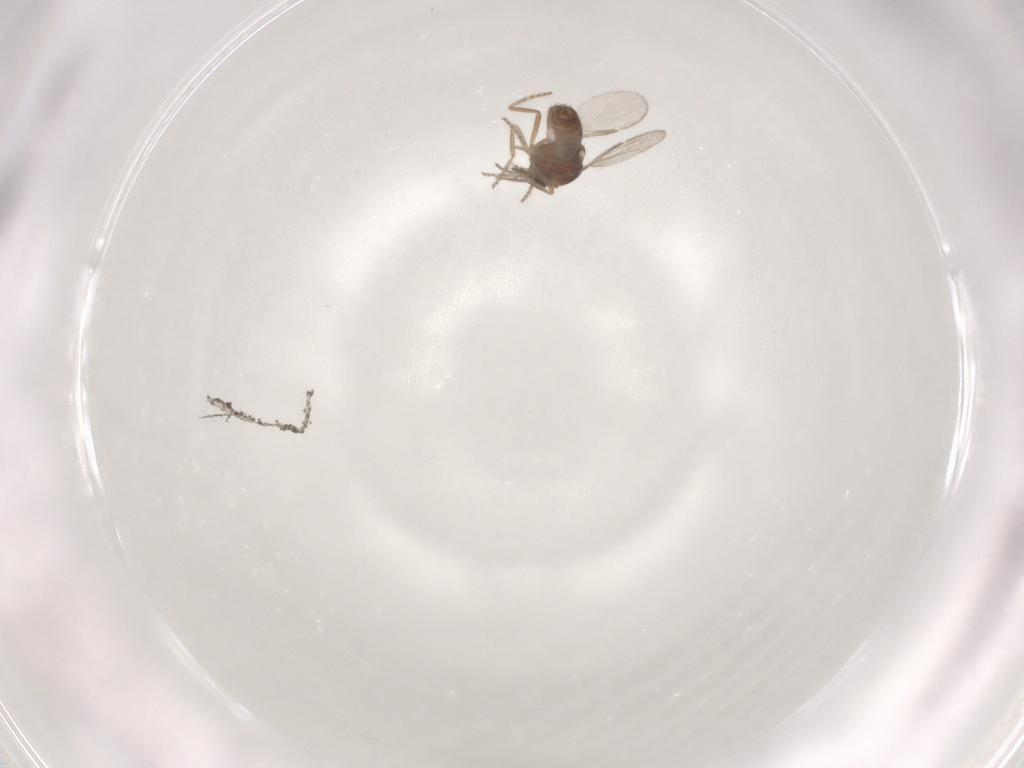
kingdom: Animalia
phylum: Arthropoda
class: Insecta
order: Diptera
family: Ceratopogonidae
